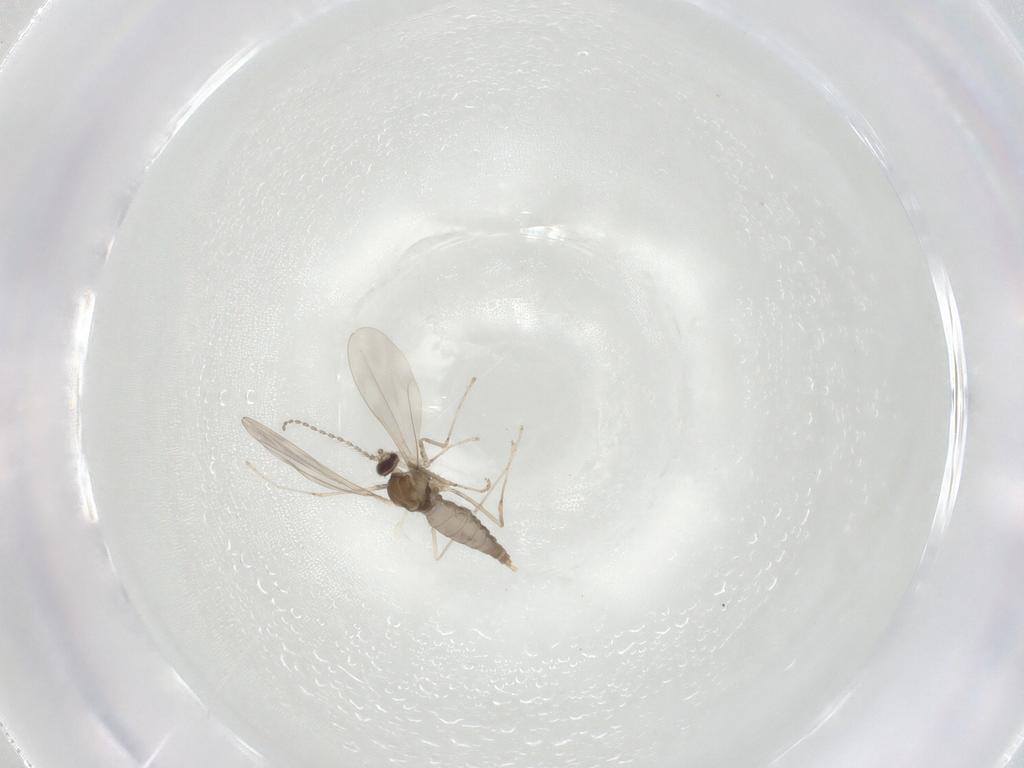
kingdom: Animalia
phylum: Arthropoda
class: Insecta
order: Diptera
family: Cecidomyiidae
